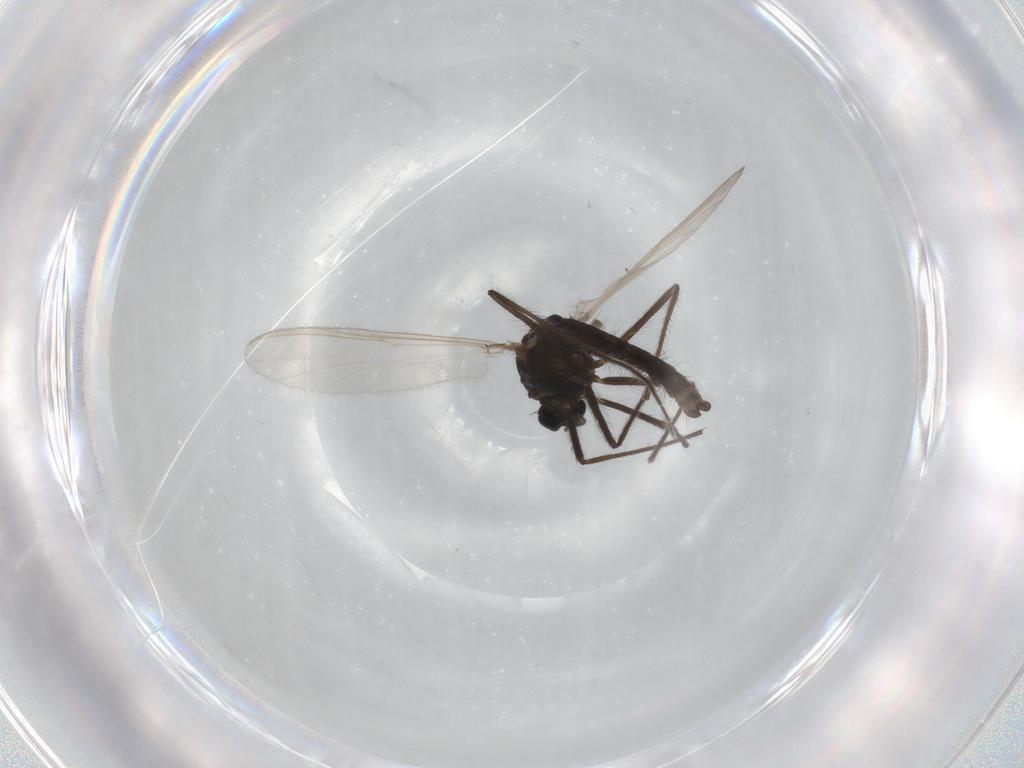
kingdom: Animalia
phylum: Arthropoda
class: Insecta
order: Diptera
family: Chironomidae
